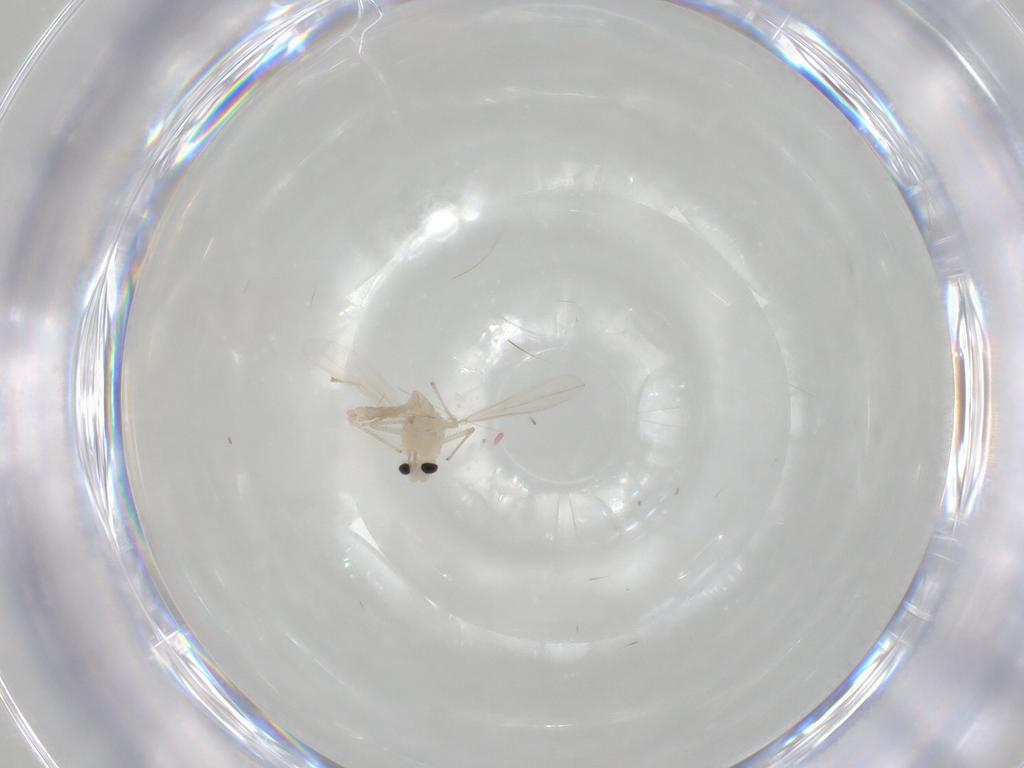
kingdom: Animalia
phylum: Arthropoda
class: Insecta
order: Diptera
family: Chironomidae
